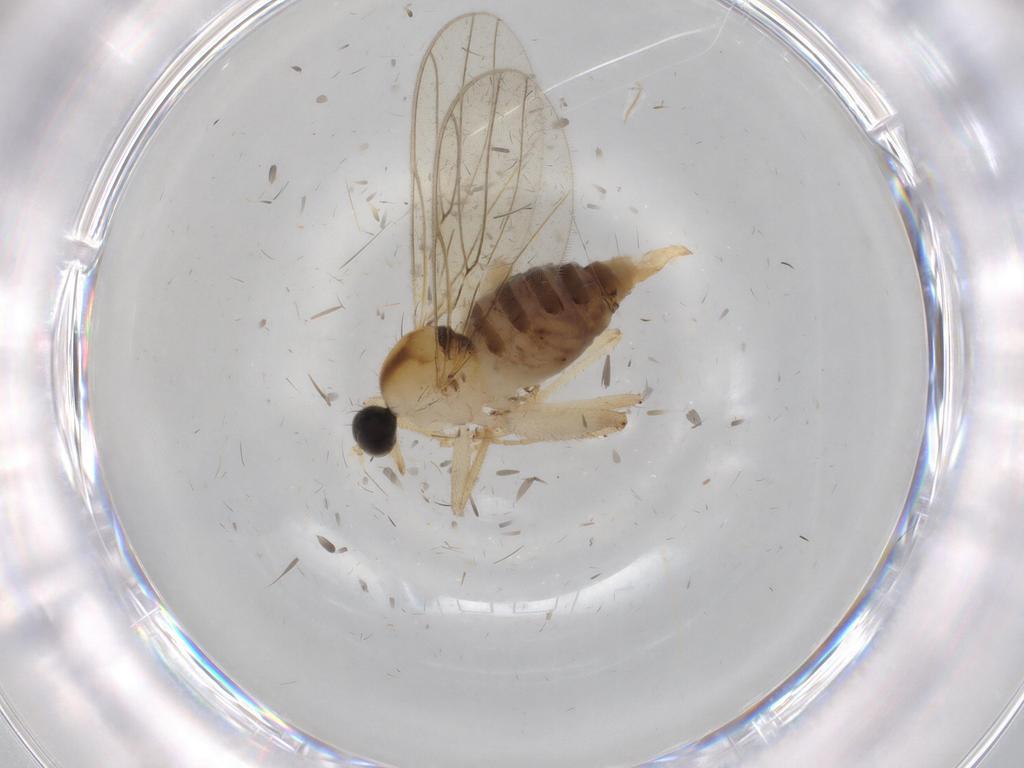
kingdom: Animalia
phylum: Arthropoda
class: Insecta
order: Diptera
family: Hybotidae
